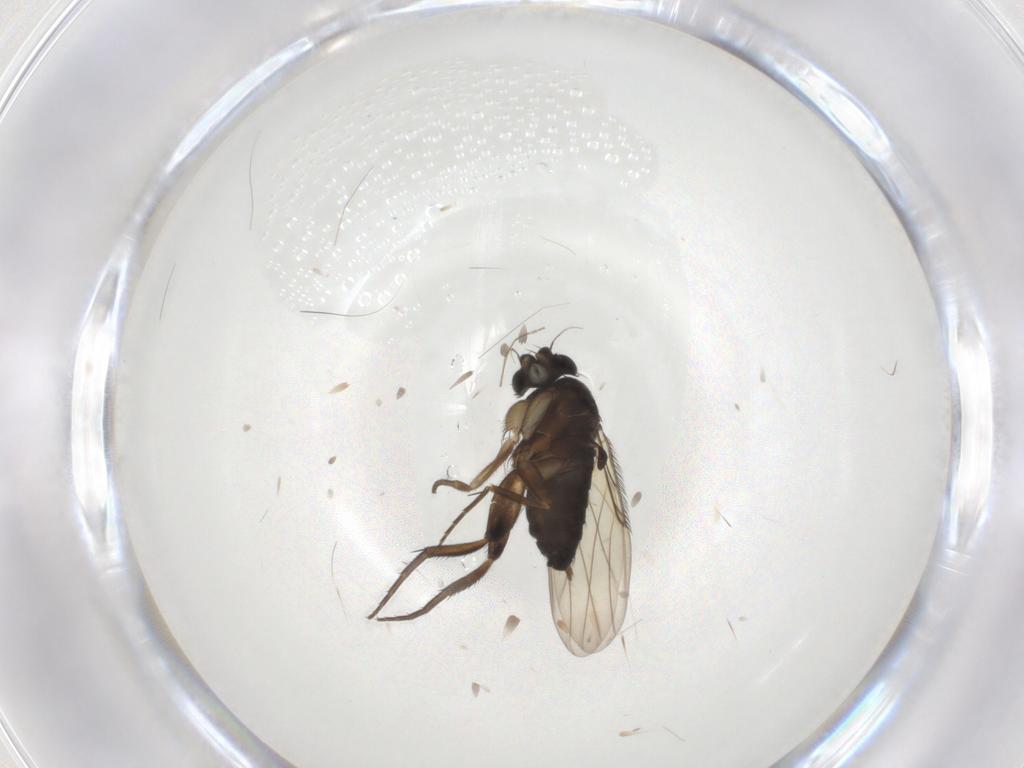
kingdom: Animalia
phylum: Arthropoda
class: Insecta
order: Diptera
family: Phoridae
